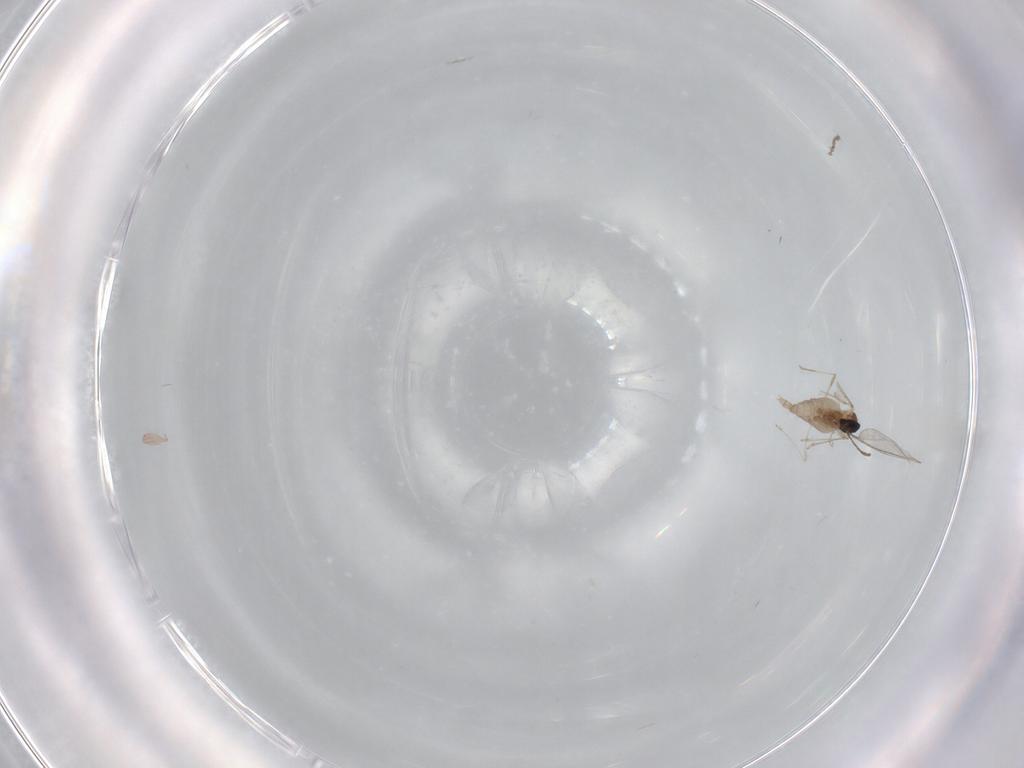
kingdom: Animalia
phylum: Arthropoda
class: Insecta
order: Diptera
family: Cecidomyiidae
